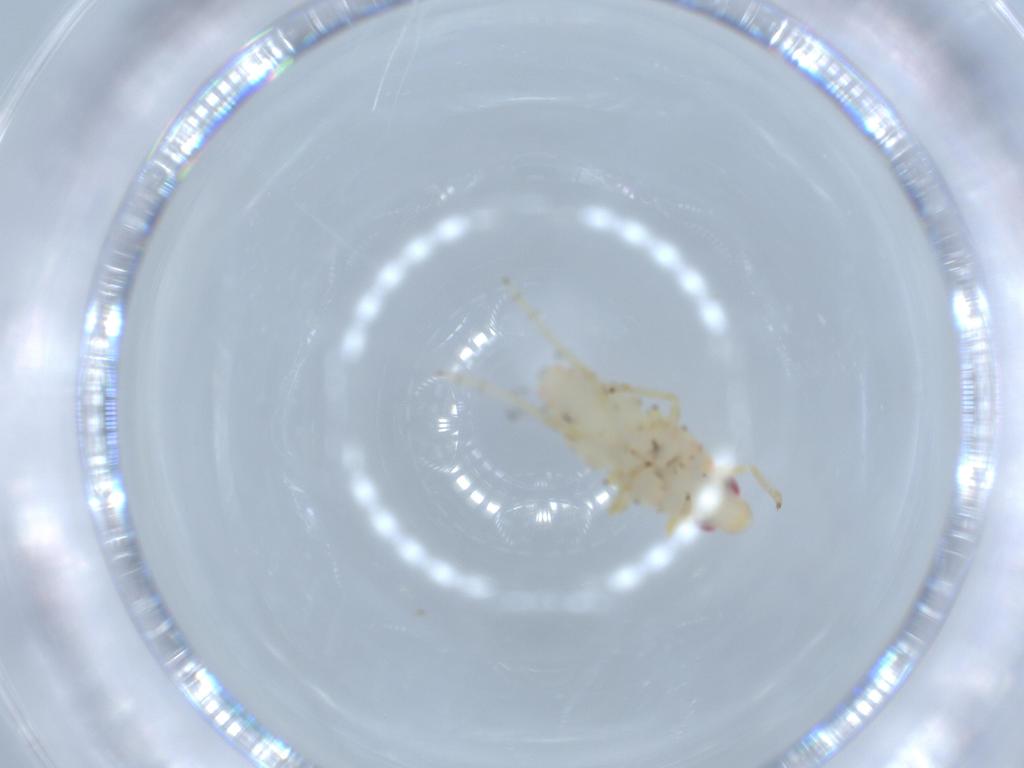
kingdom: Animalia
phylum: Arthropoda
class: Insecta
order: Hemiptera
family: Tropiduchidae
